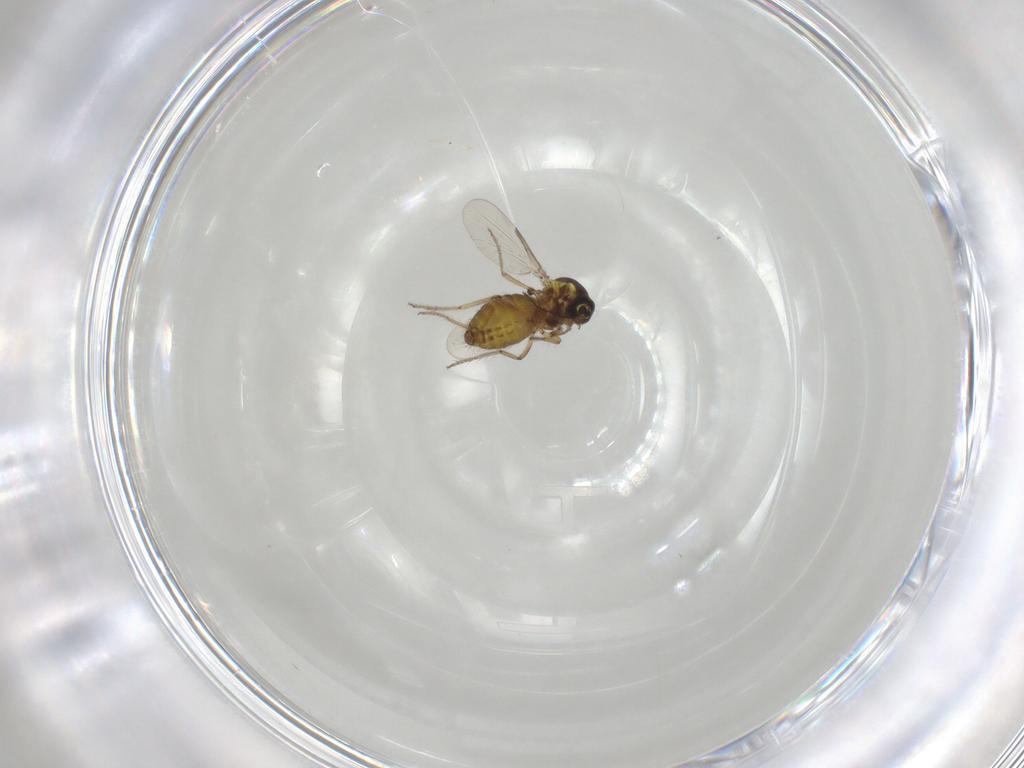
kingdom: Animalia
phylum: Arthropoda
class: Insecta
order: Diptera
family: Ceratopogonidae
